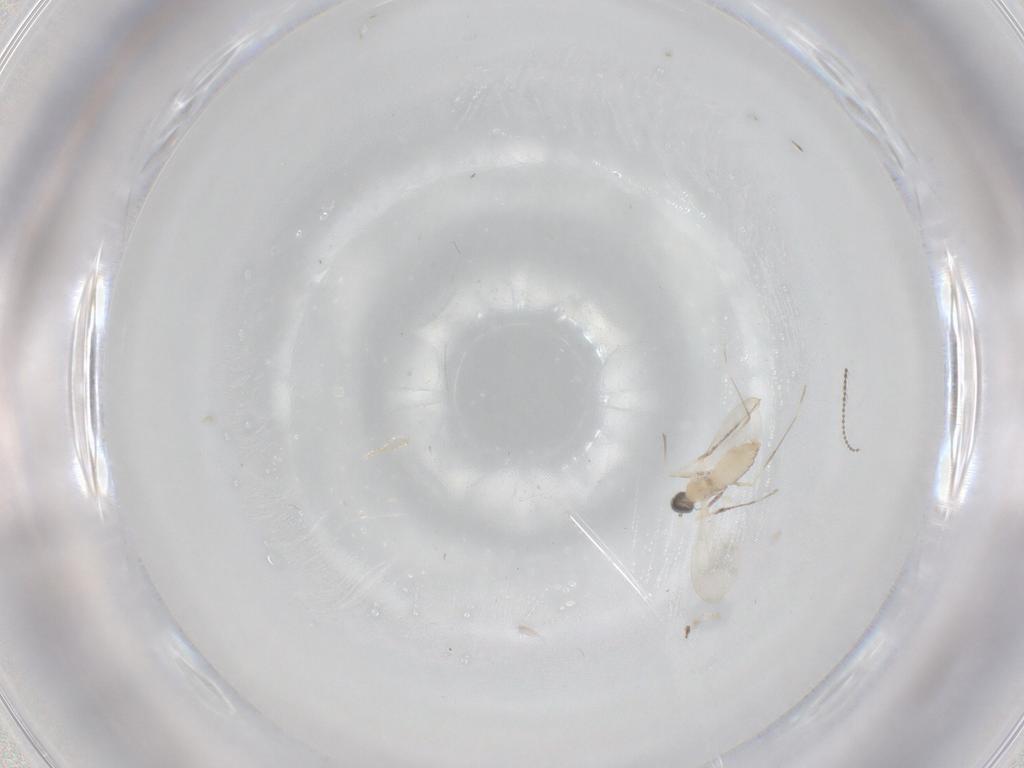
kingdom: Animalia
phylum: Arthropoda
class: Insecta
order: Diptera
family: Cecidomyiidae
